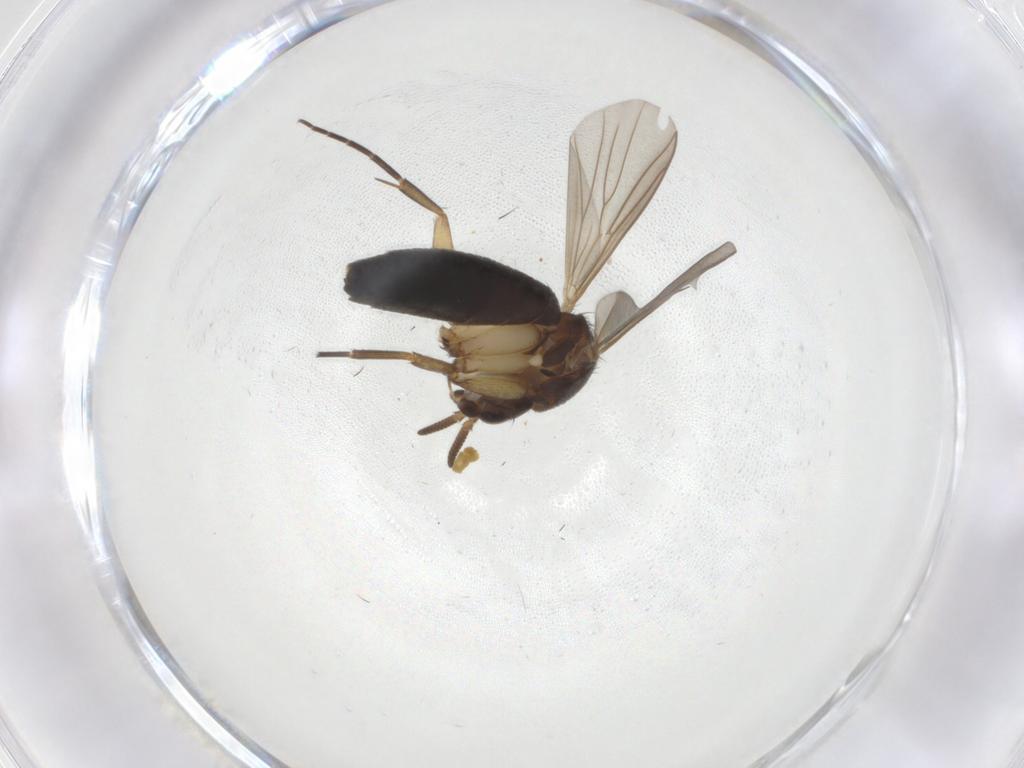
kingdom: Animalia
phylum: Arthropoda
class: Insecta
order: Diptera
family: Mycetophilidae
